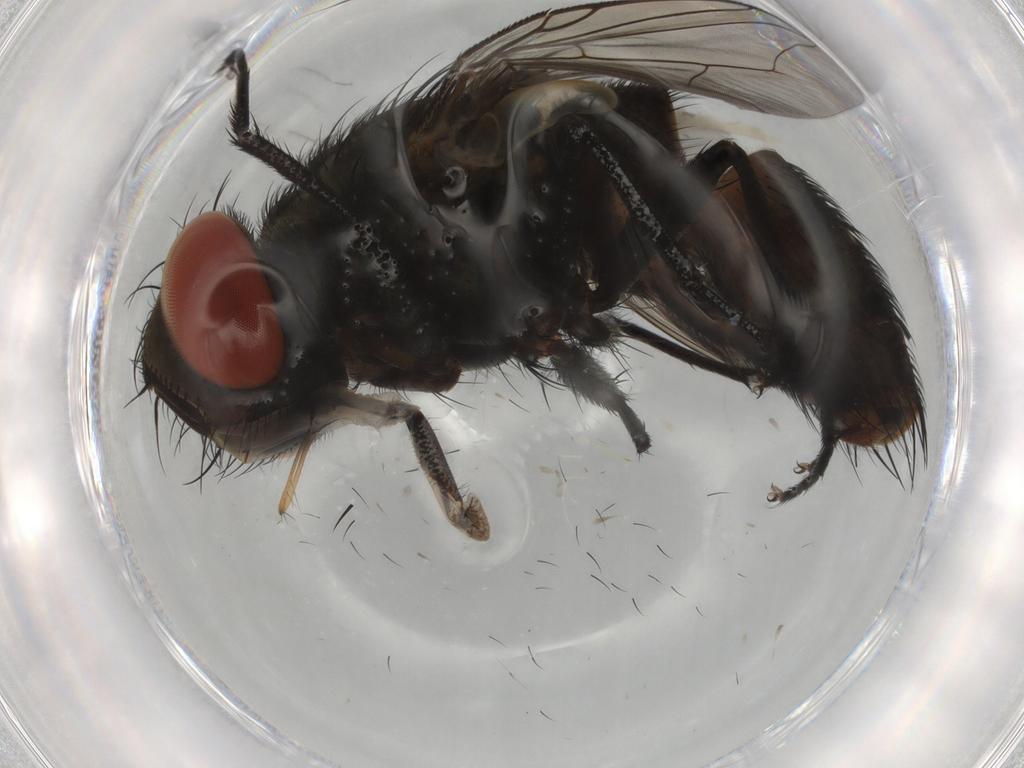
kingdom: Animalia
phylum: Arthropoda
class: Insecta
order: Diptera
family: Sarcophagidae
